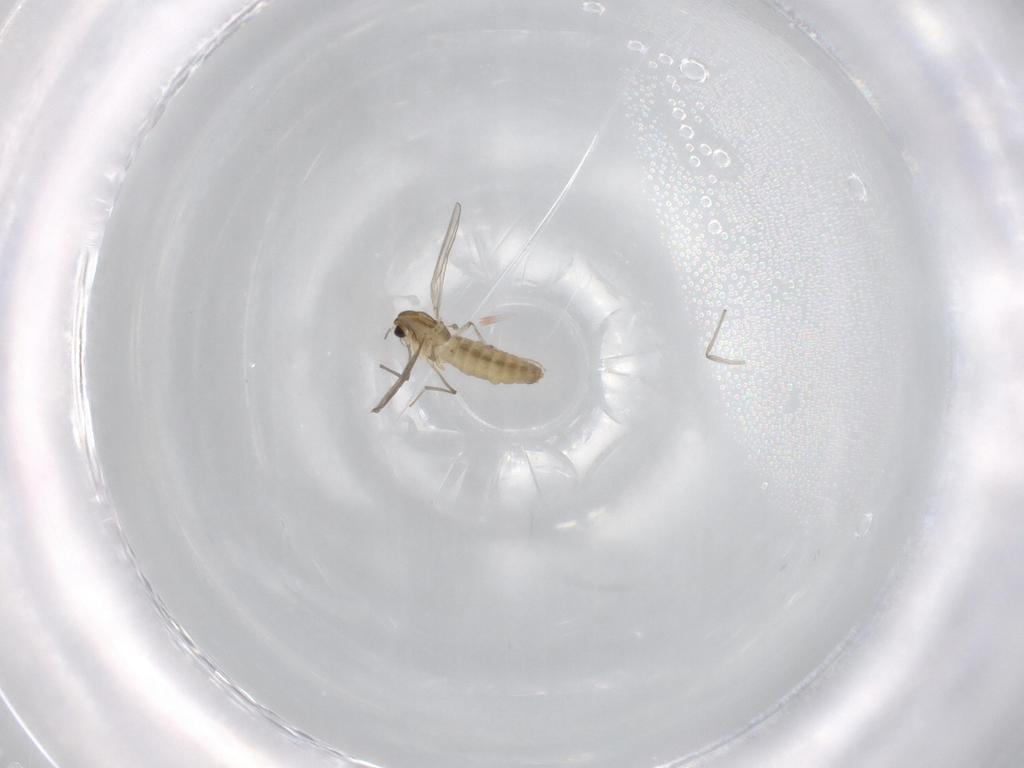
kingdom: Animalia
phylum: Arthropoda
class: Insecta
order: Diptera
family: Chironomidae
